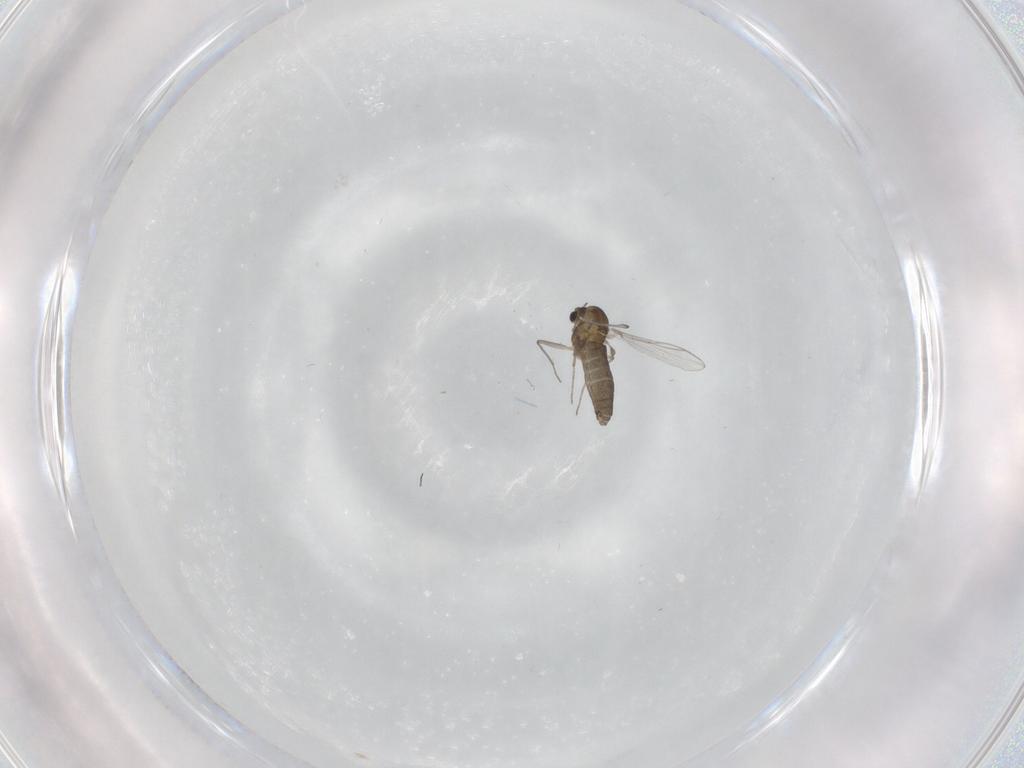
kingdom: Animalia
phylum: Arthropoda
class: Insecta
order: Diptera
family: Chironomidae
